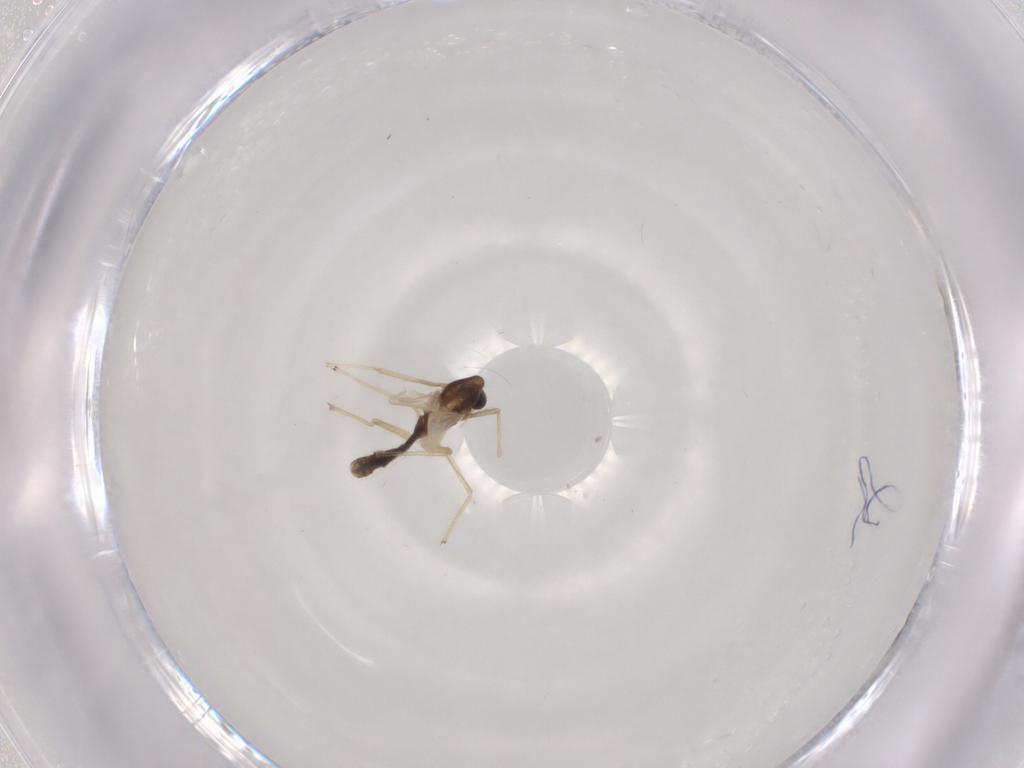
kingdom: Animalia
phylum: Arthropoda
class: Insecta
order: Diptera
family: Chironomidae
